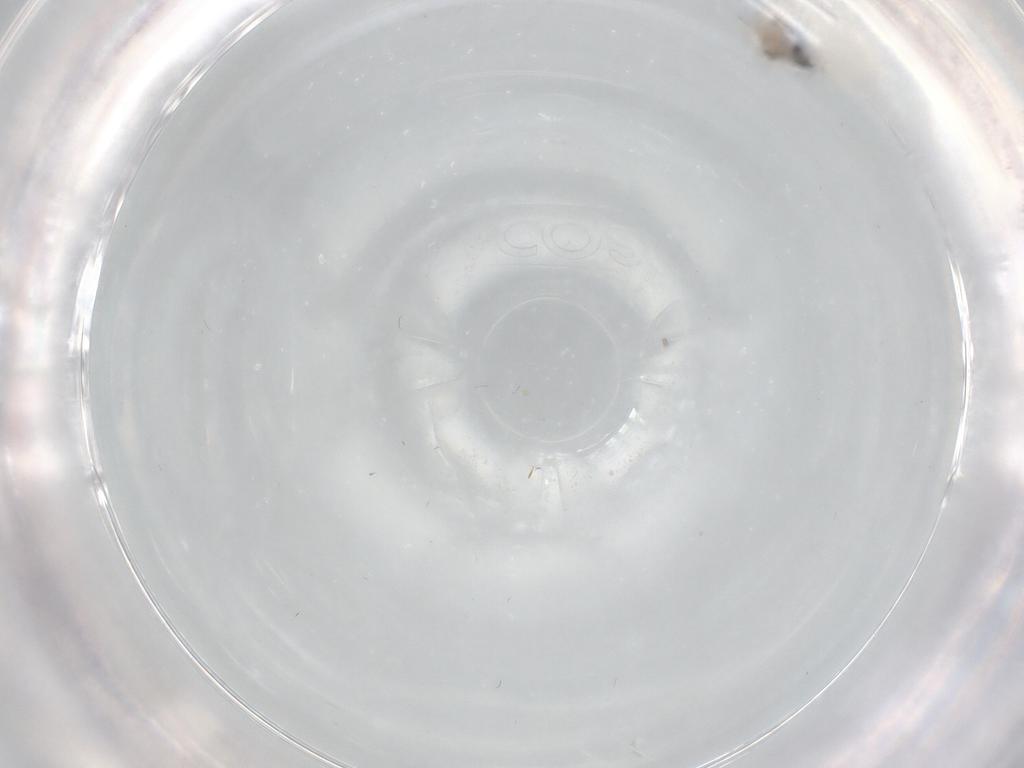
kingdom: Animalia
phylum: Arthropoda
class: Insecta
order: Diptera
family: Cecidomyiidae
